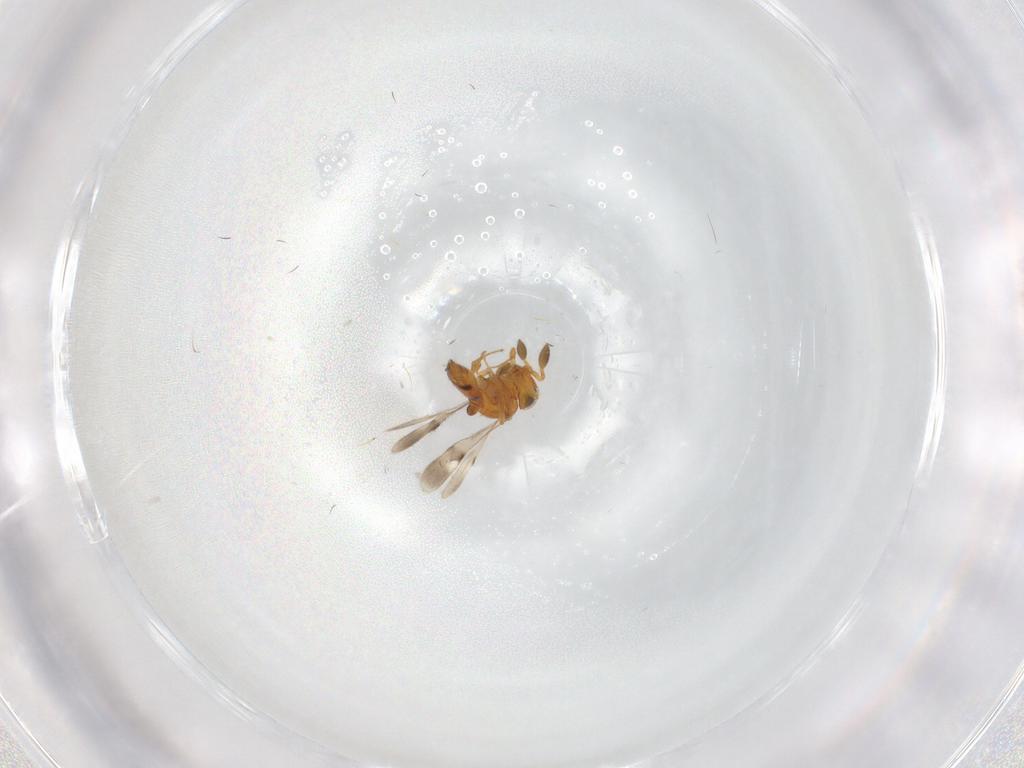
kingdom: Animalia
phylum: Arthropoda
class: Insecta
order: Hymenoptera
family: Scelionidae
